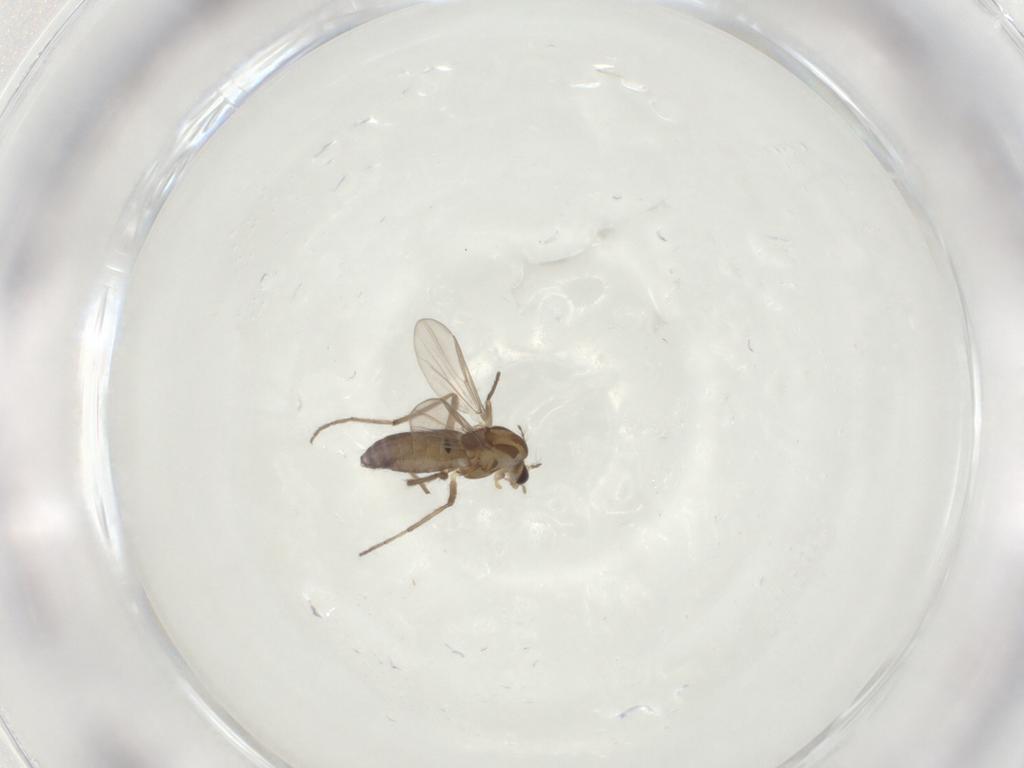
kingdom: Animalia
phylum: Arthropoda
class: Insecta
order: Diptera
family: Chironomidae
